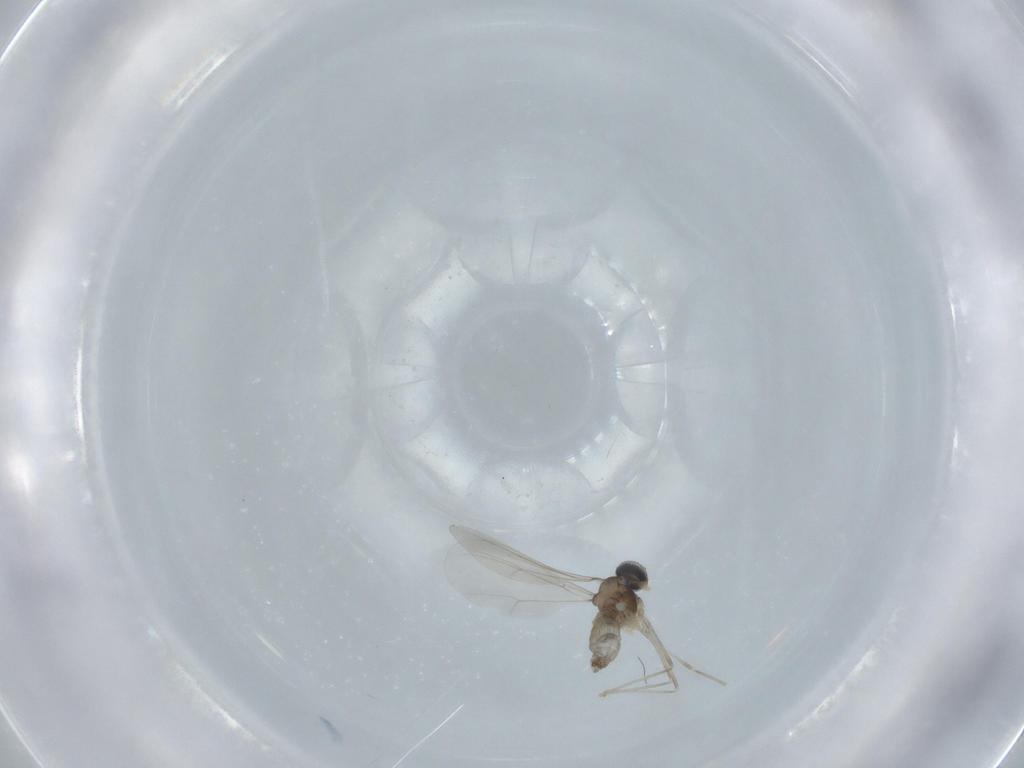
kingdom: Animalia
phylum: Arthropoda
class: Insecta
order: Diptera
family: Cecidomyiidae
